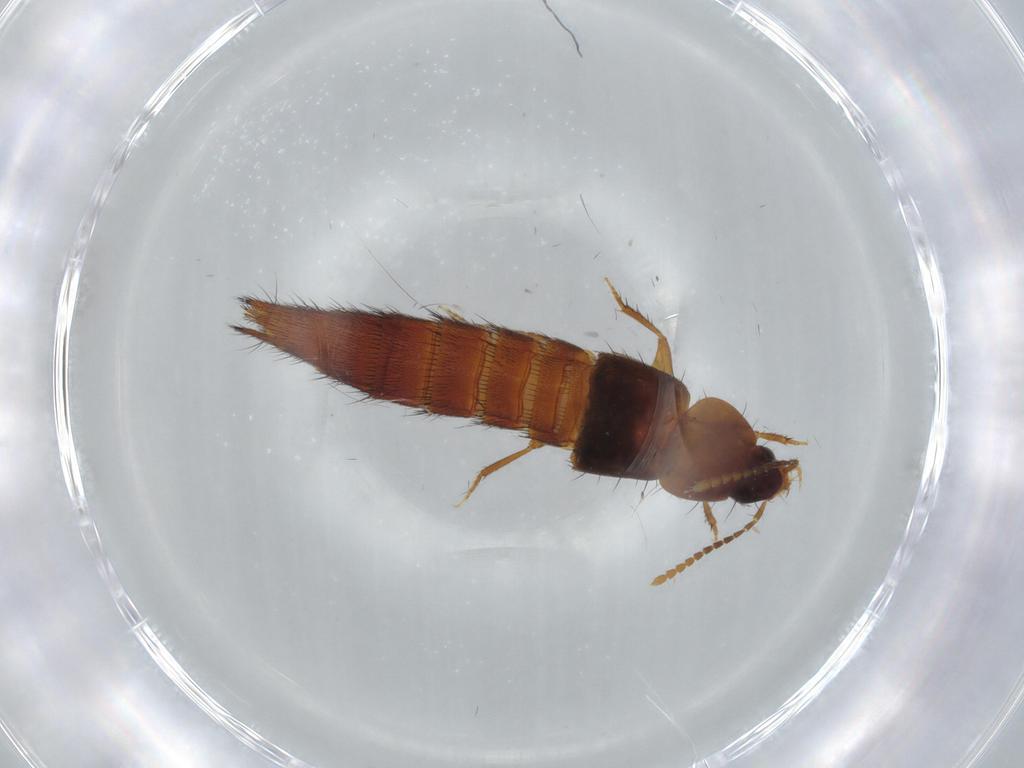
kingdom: Animalia
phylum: Arthropoda
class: Insecta
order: Coleoptera
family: Staphylinidae
